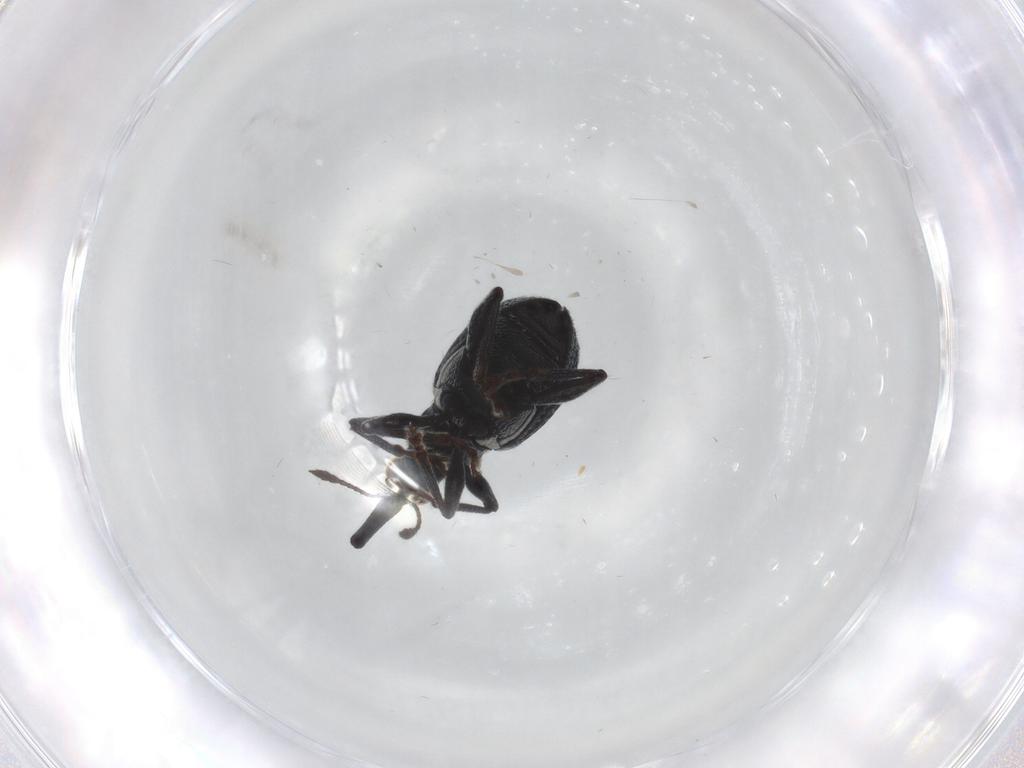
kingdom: Animalia
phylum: Arthropoda
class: Insecta
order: Coleoptera
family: Brentidae
